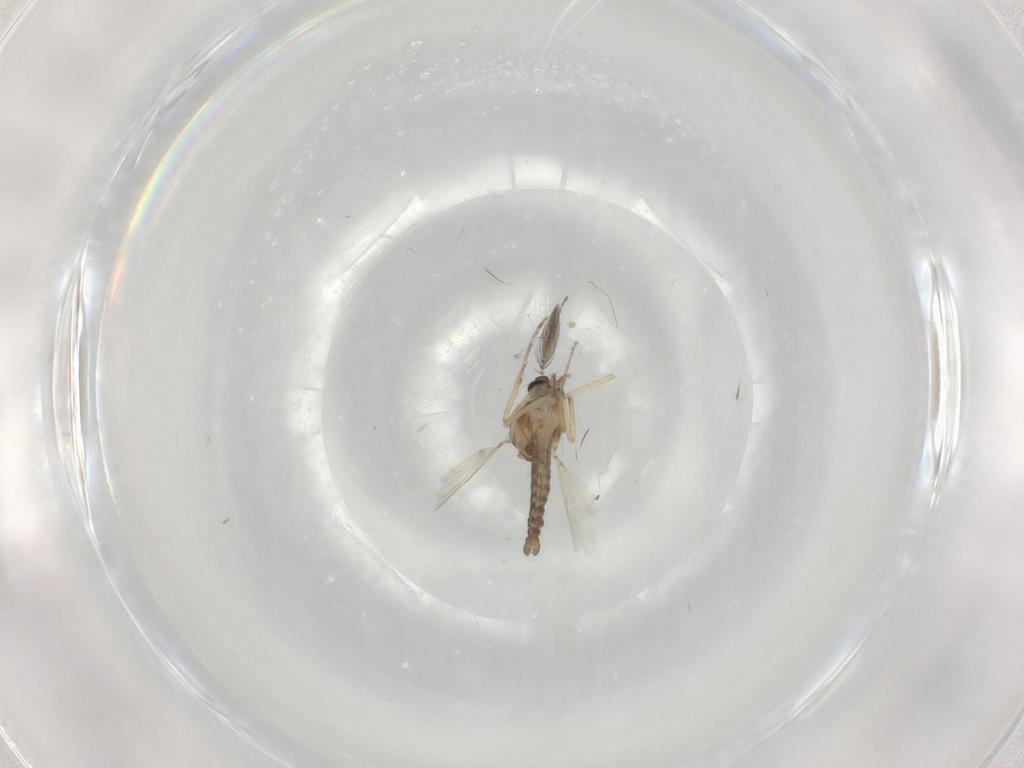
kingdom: Animalia
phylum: Arthropoda
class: Insecta
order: Diptera
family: Ceratopogonidae
